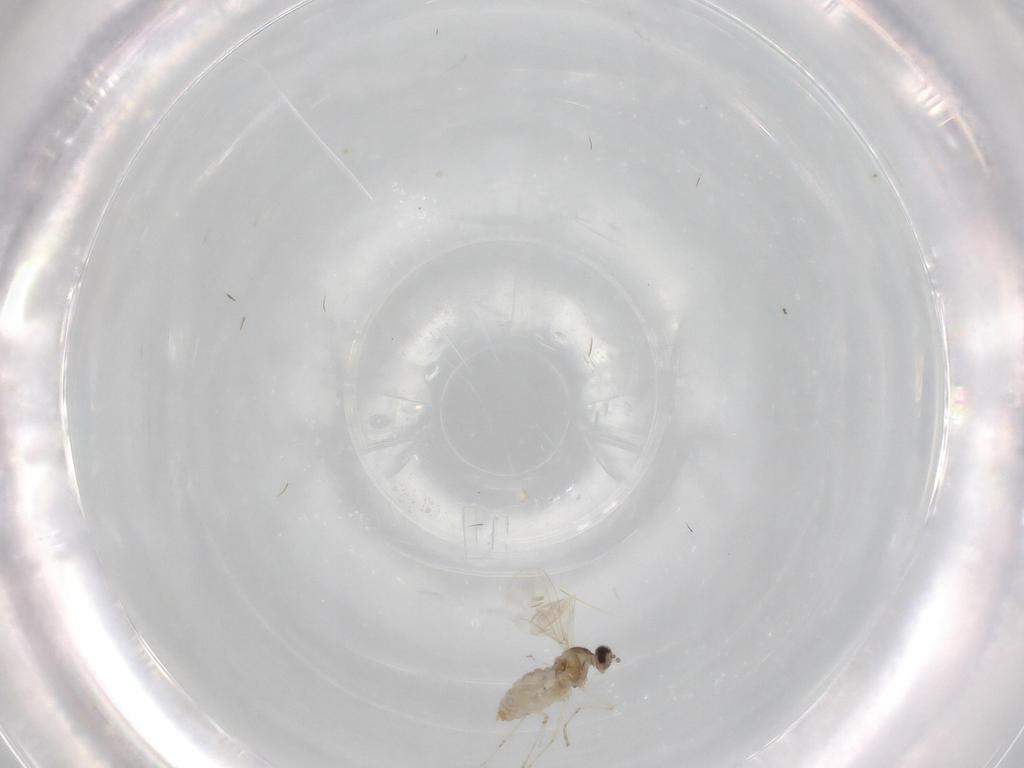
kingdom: Animalia
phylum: Arthropoda
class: Insecta
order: Diptera
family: Cecidomyiidae
